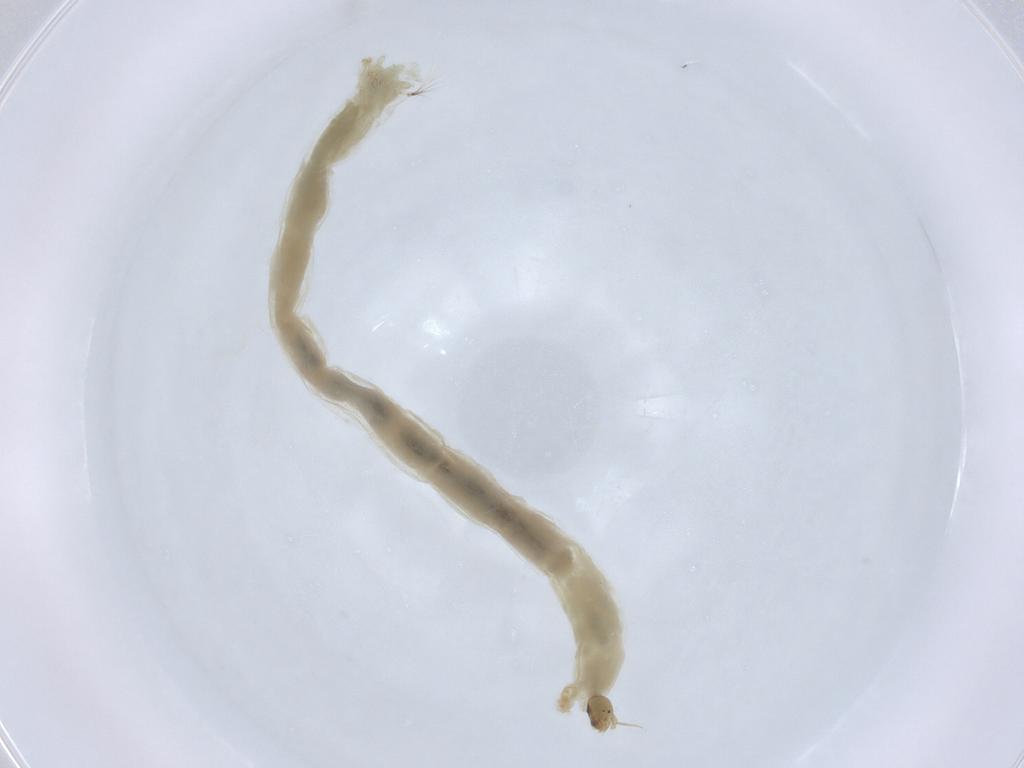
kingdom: Animalia
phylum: Arthropoda
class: Insecta
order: Diptera
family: Chironomidae
